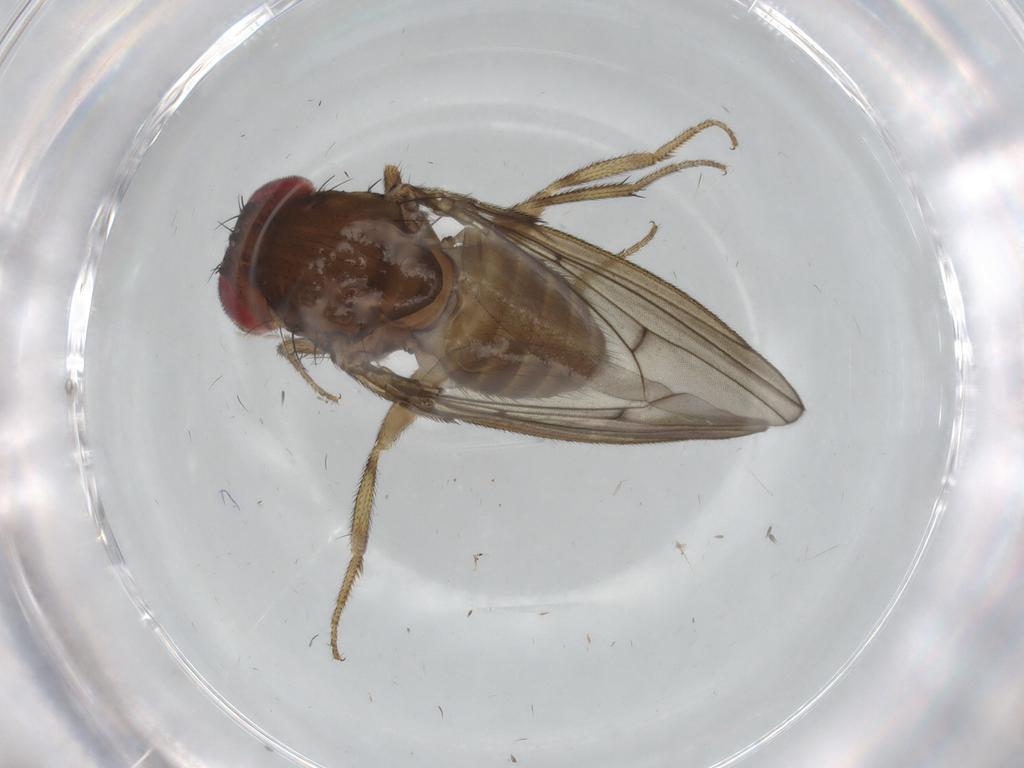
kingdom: Animalia
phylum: Arthropoda
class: Insecta
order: Diptera
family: Drosophilidae
